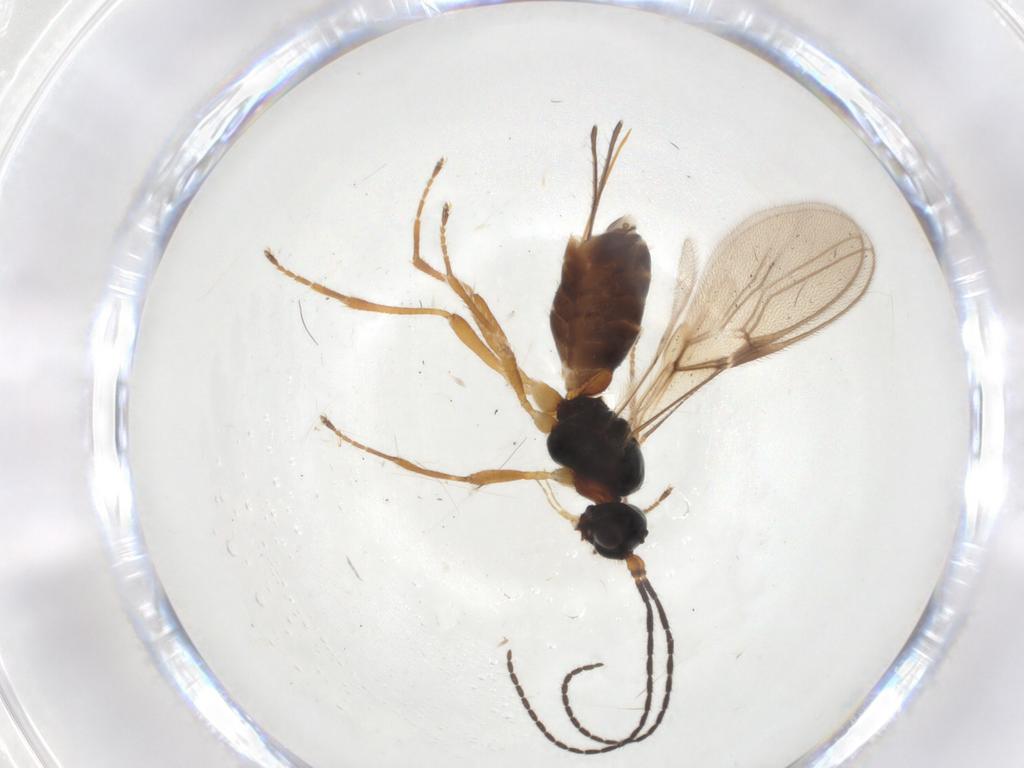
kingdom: Animalia
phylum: Arthropoda
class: Insecta
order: Hymenoptera
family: Braconidae
